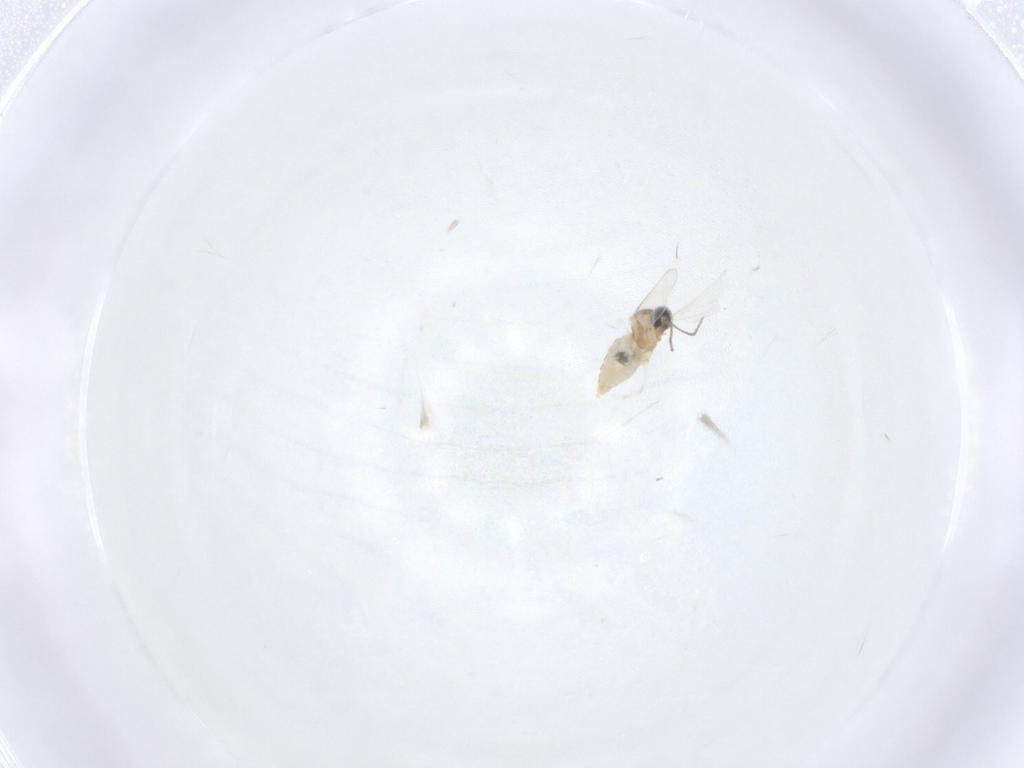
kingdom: Animalia
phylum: Arthropoda
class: Insecta
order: Diptera
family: Cecidomyiidae
